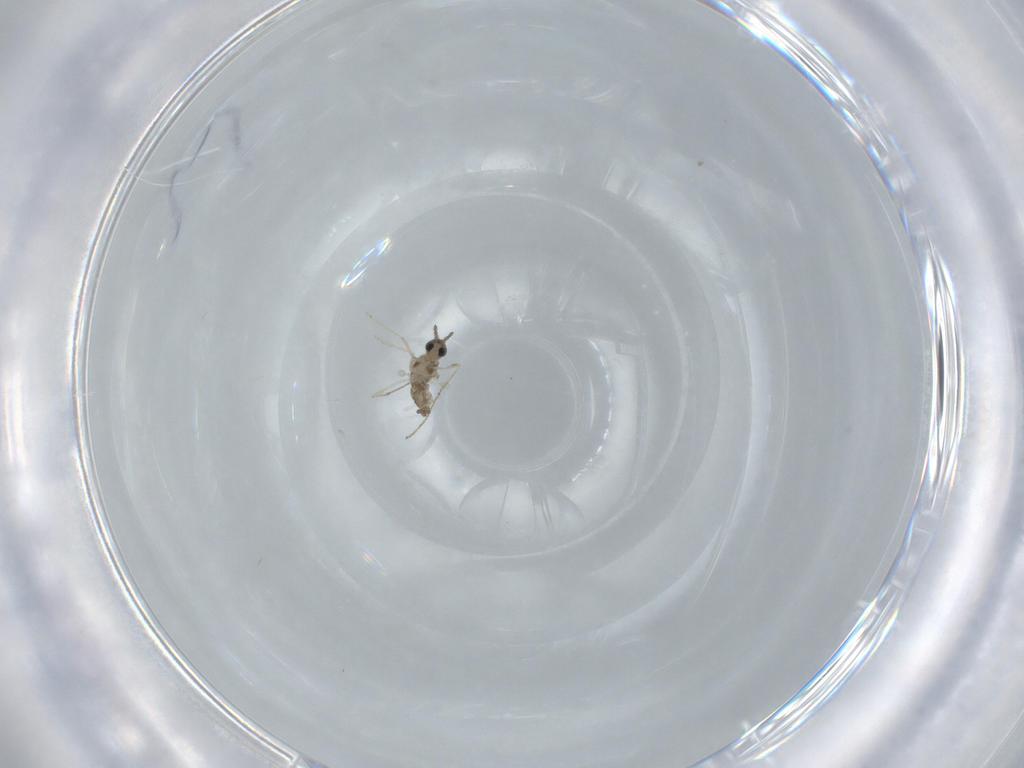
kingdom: Animalia
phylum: Arthropoda
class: Insecta
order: Diptera
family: Cecidomyiidae
